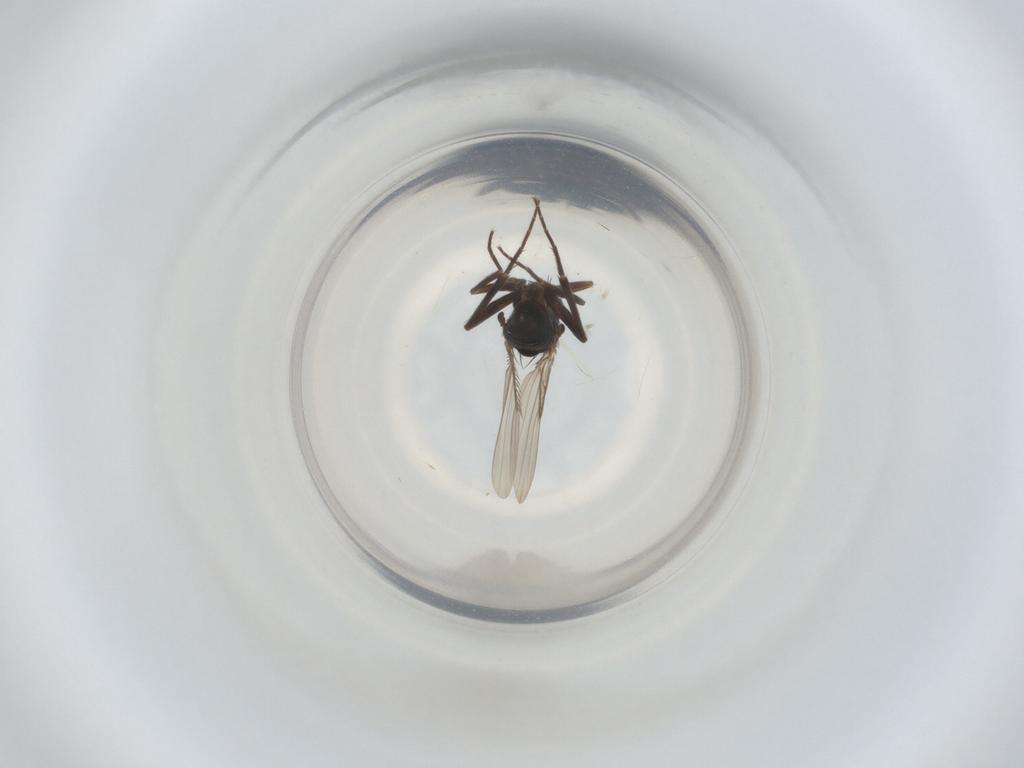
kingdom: Animalia
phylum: Arthropoda
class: Insecta
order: Diptera
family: Phoridae
